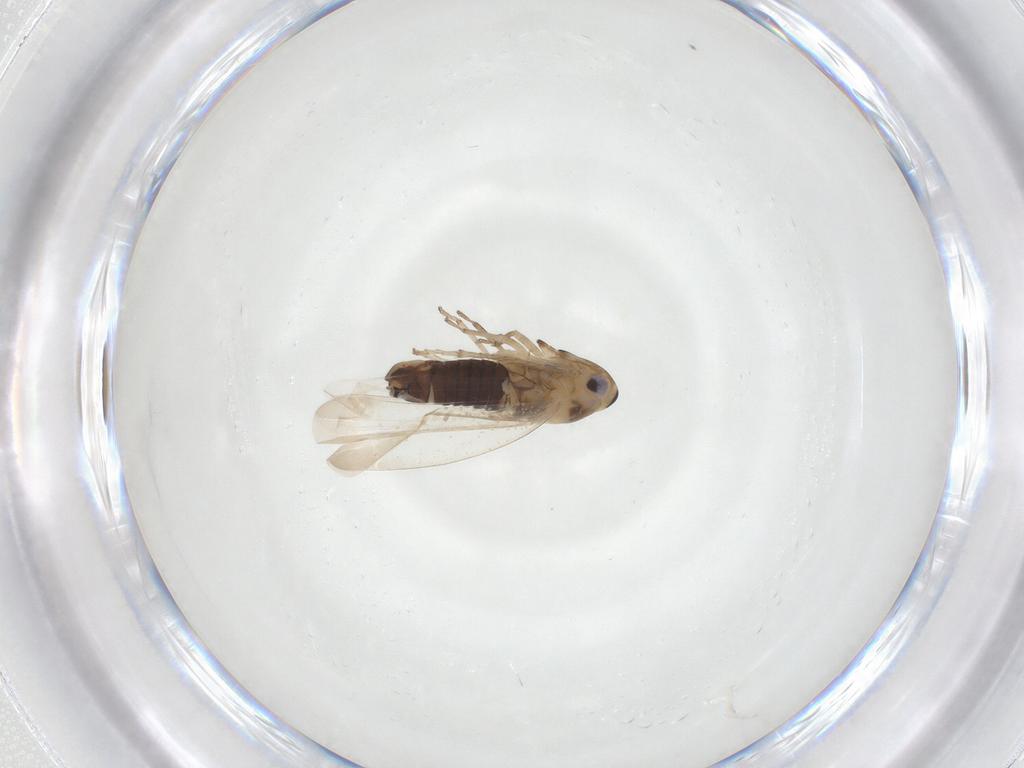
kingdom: Animalia
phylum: Arthropoda
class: Insecta
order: Hemiptera
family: Cicadellidae
